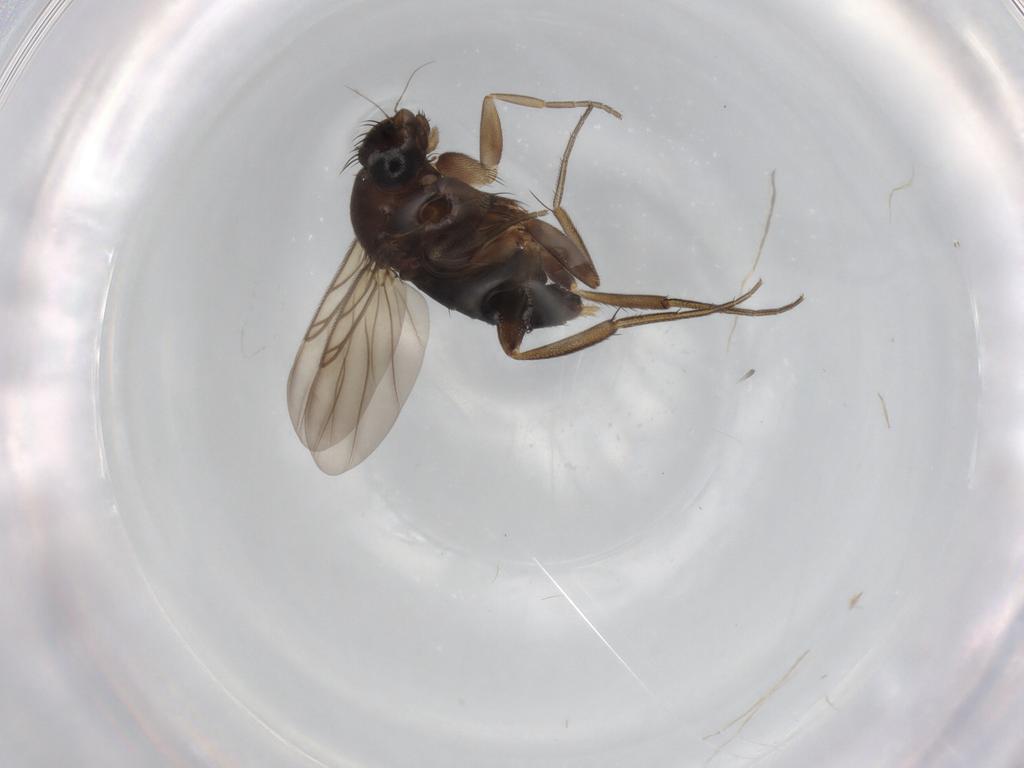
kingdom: Animalia
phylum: Arthropoda
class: Insecta
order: Diptera
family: Phoridae
